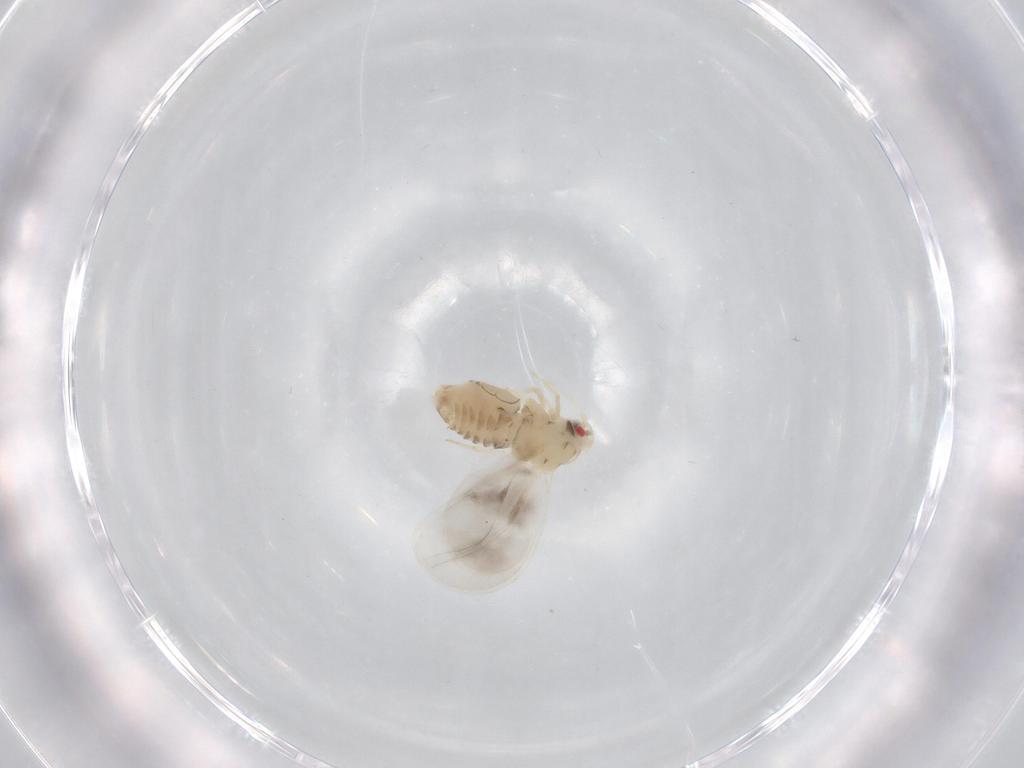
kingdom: Animalia
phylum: Arthropoda
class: Insecta
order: Hemiptera
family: Aleyrodidae
